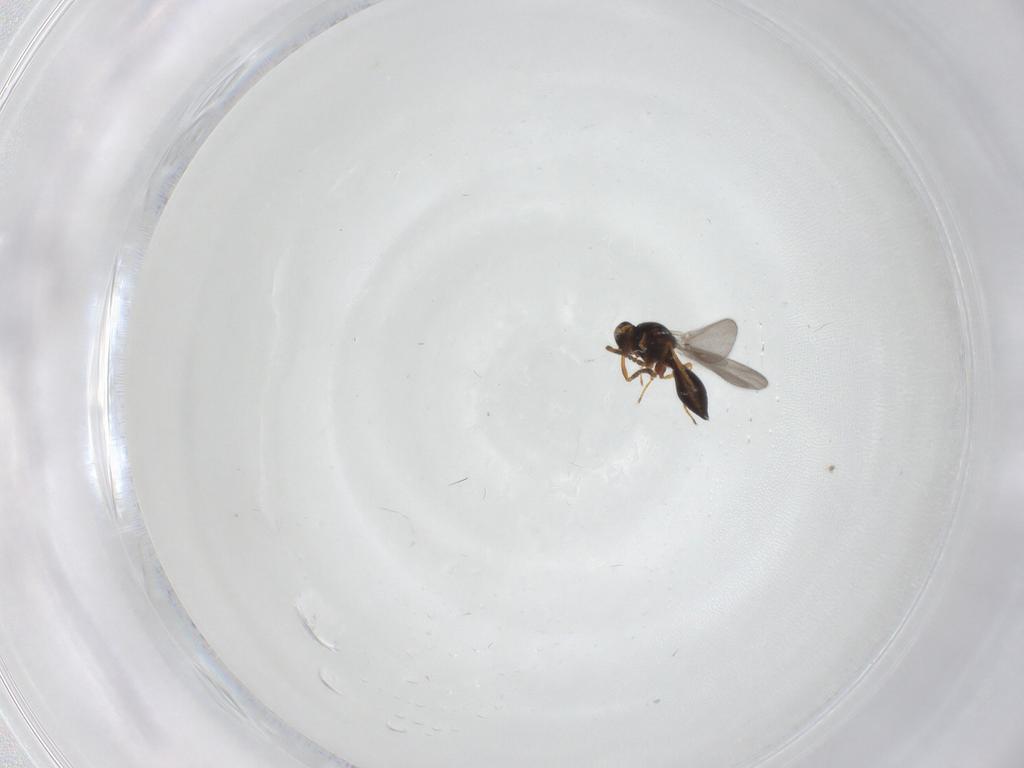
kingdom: Animalia
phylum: Arthropoda
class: Insecta
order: Hymenoptera
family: Platygastridae
